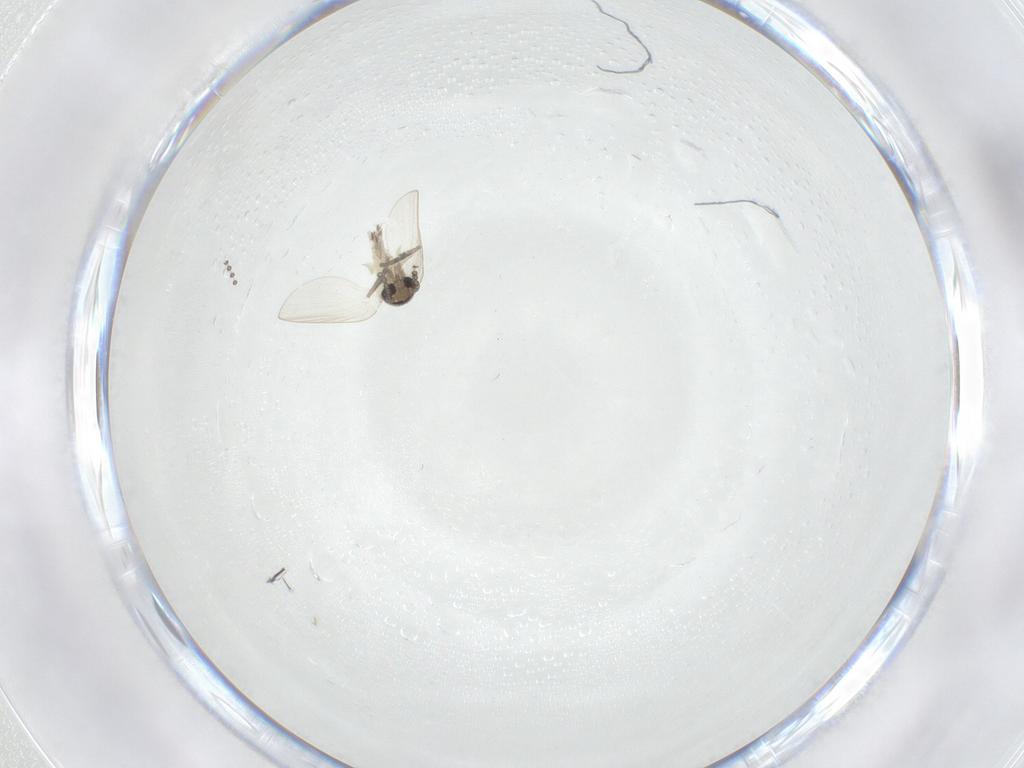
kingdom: Animalia
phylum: Arthropoda
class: Insecta
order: Diptera
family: Psychodidae
